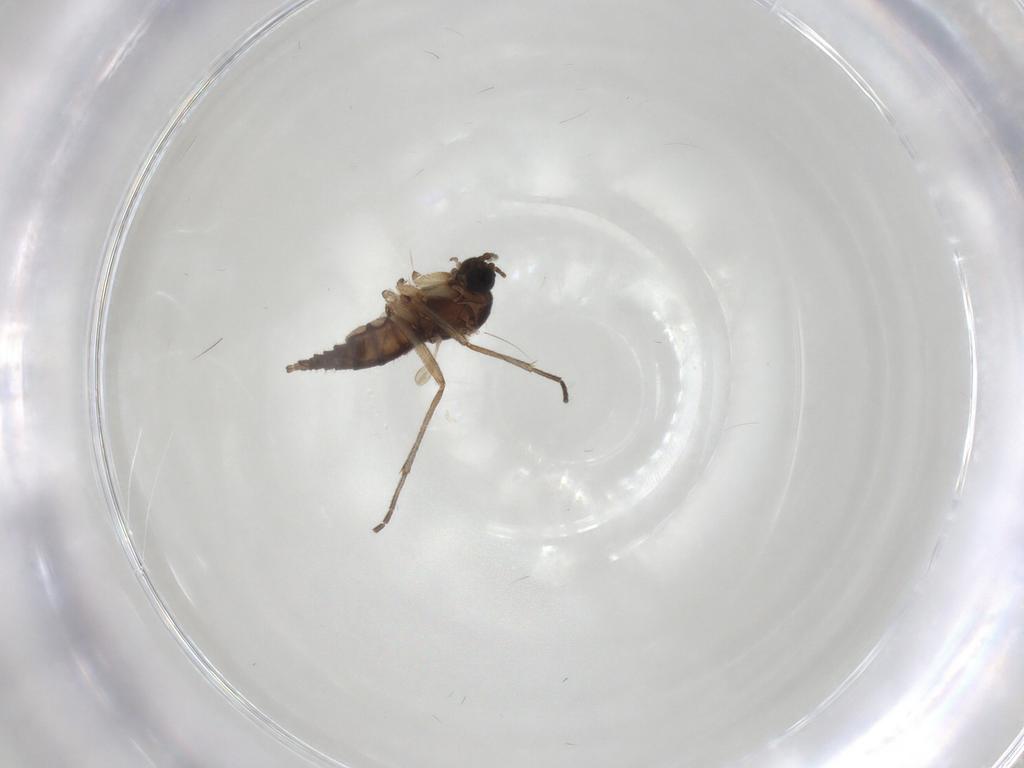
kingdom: Animalia
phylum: Arthropoda
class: Insecta
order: Diptera
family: Sciaridae
